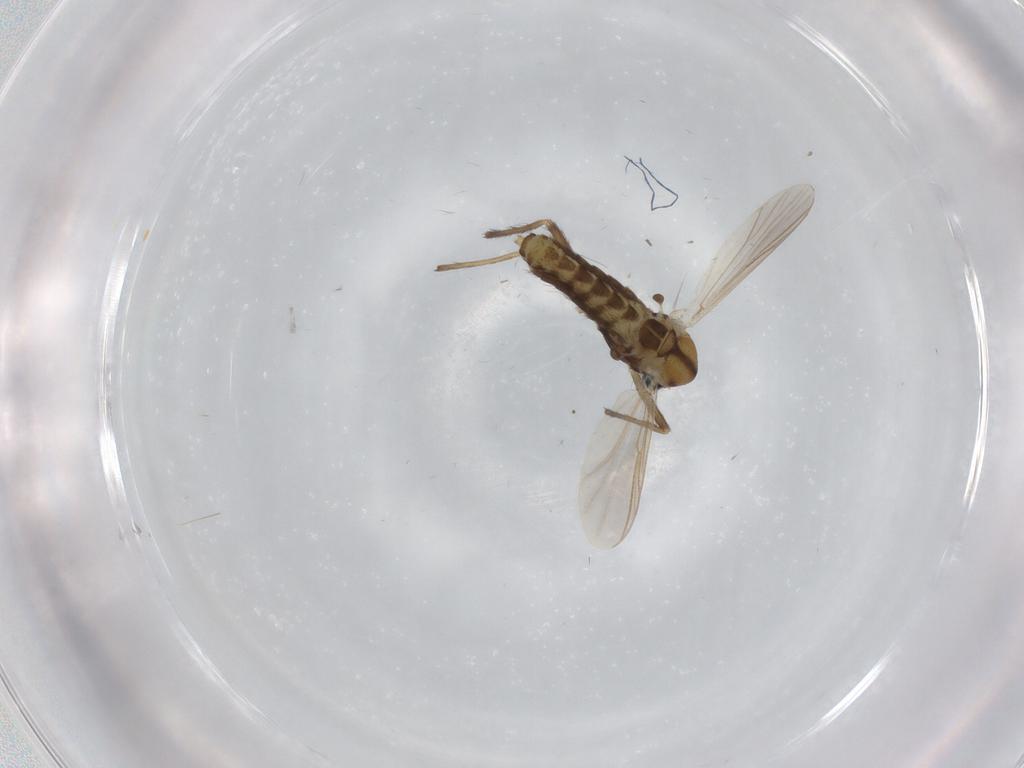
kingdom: Animalia
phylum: Arthropoda
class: Insecta
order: Diptera
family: Chironomidae
